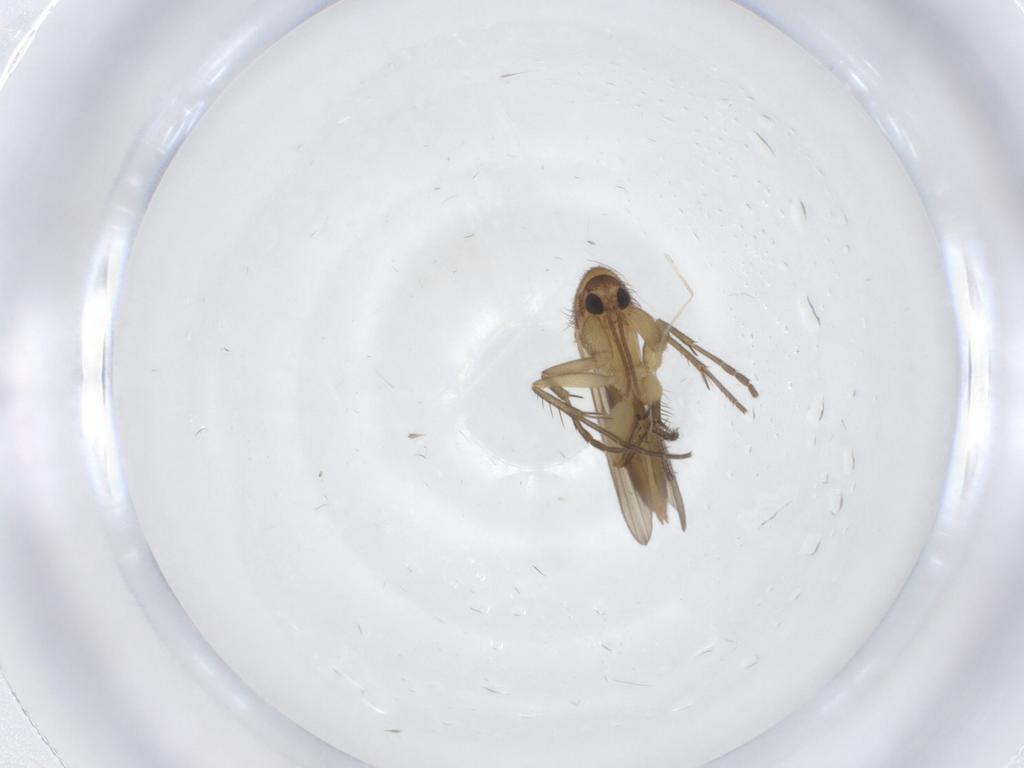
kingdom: Animalia
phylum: Arthropoda
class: Insecta
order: Diptera
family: Mycetophilidae
